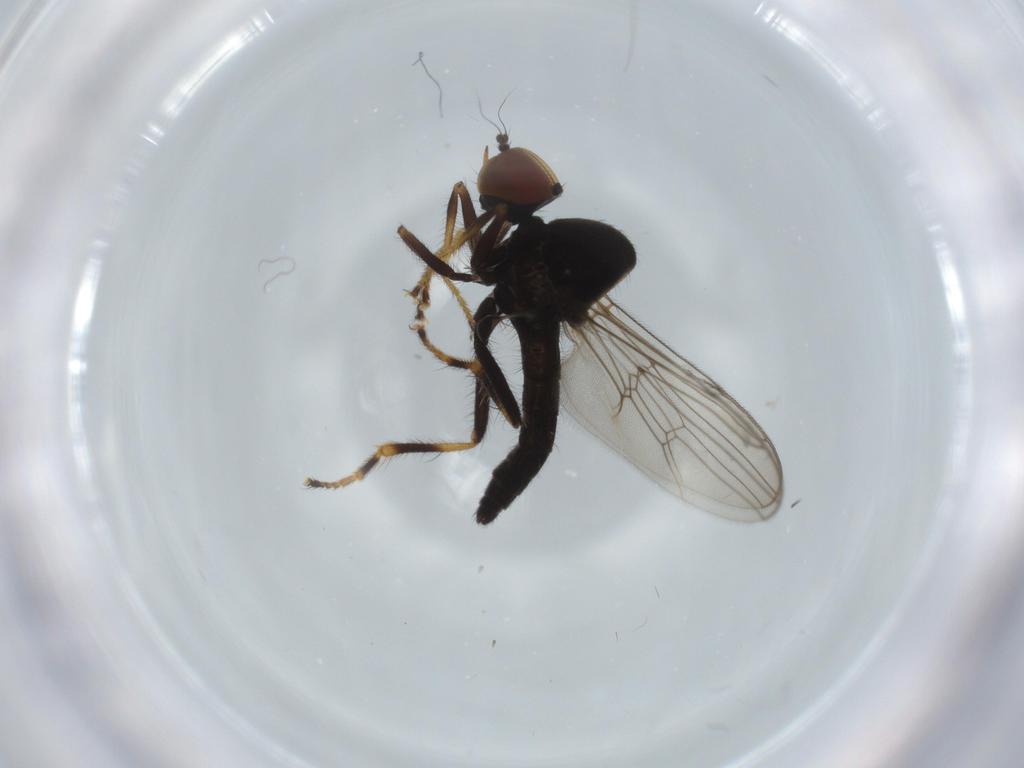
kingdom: Animalia
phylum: Arthropoda
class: Insecta
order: Diptera
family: Hybotidae
